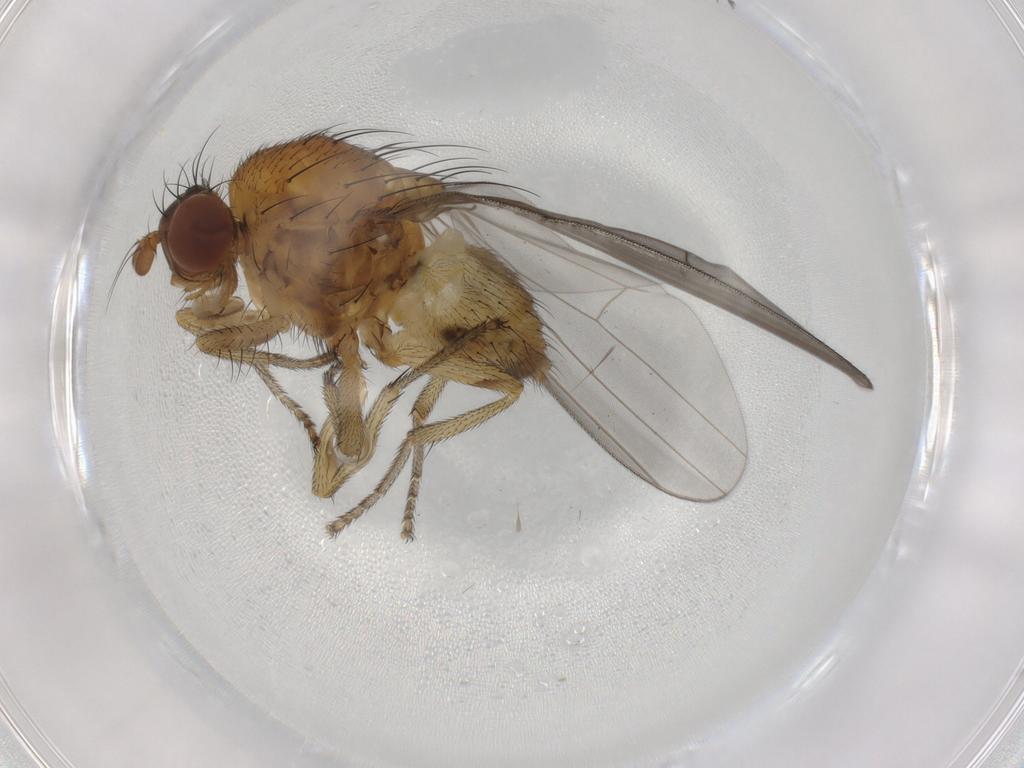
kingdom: Animalia
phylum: Arthropoda
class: Insecta
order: Diptera
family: Lauxaniidae
